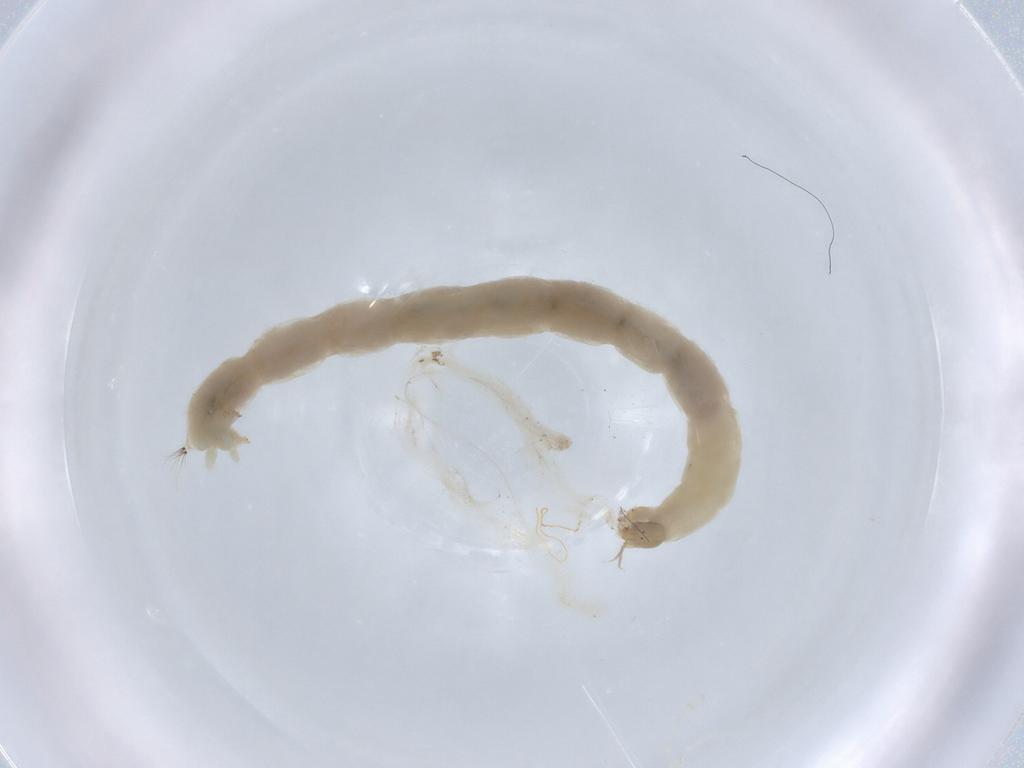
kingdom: Animalia
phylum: Arthropoda
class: Insecta
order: Diptera
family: Chironomidae
